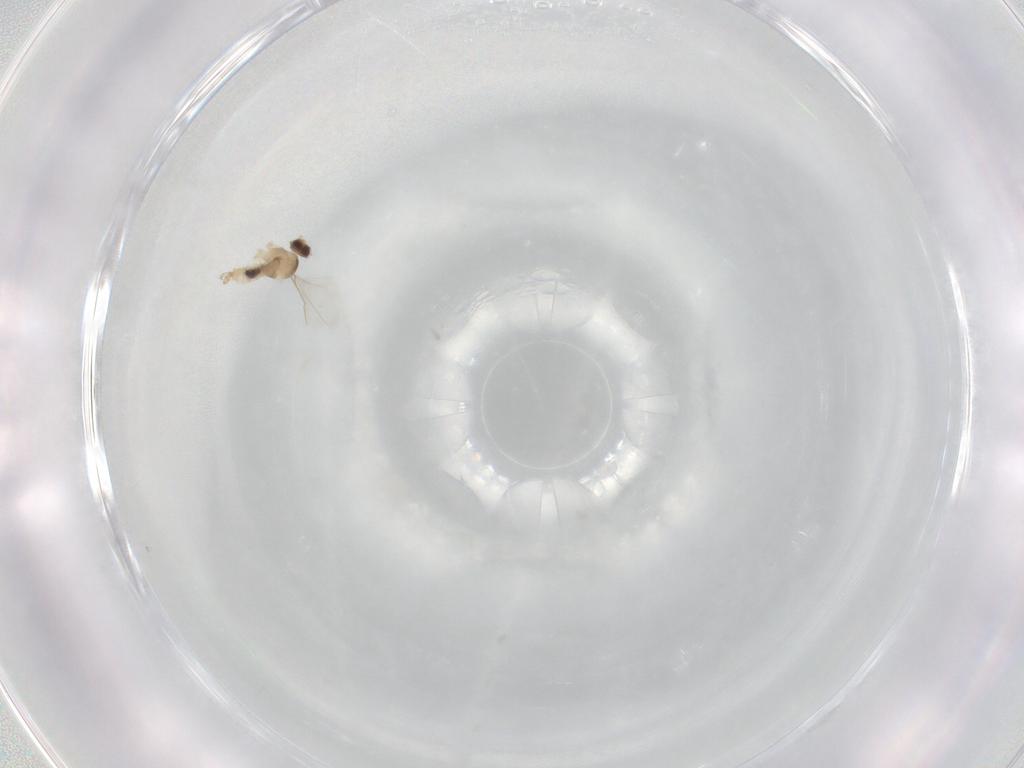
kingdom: Animalia
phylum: Arthropoda
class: Insecta
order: Diptera
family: Cecidomyiidae
